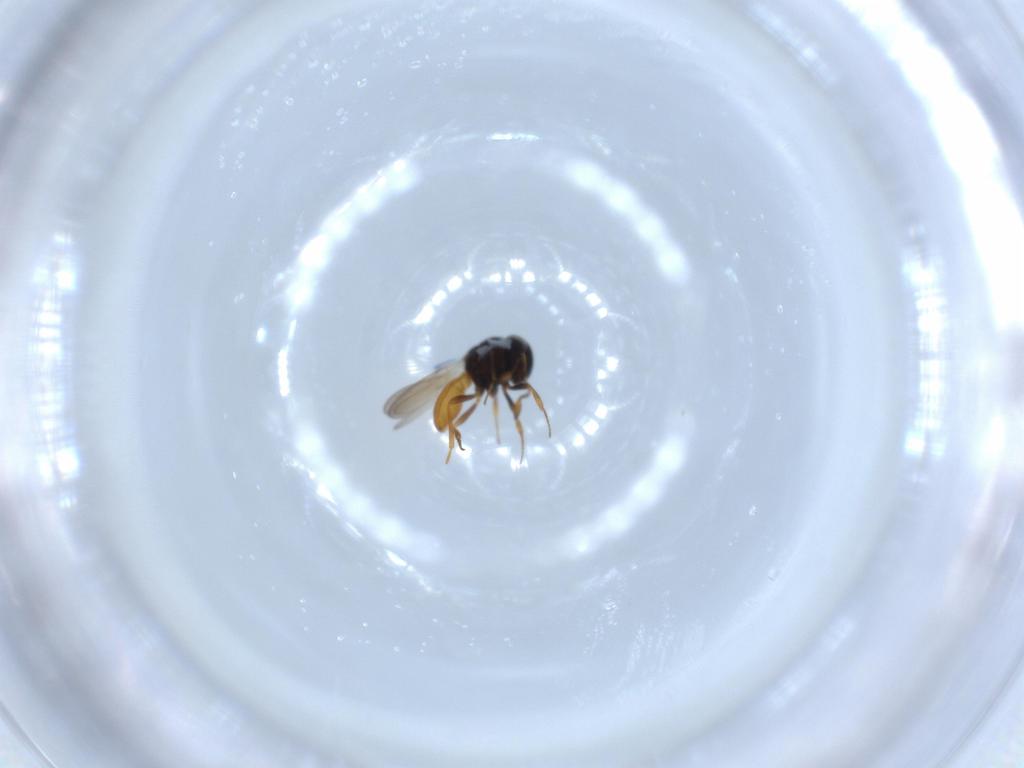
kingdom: Animalia
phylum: Arthropoda
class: Insecta
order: Hymenoptera
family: Scelionidae
